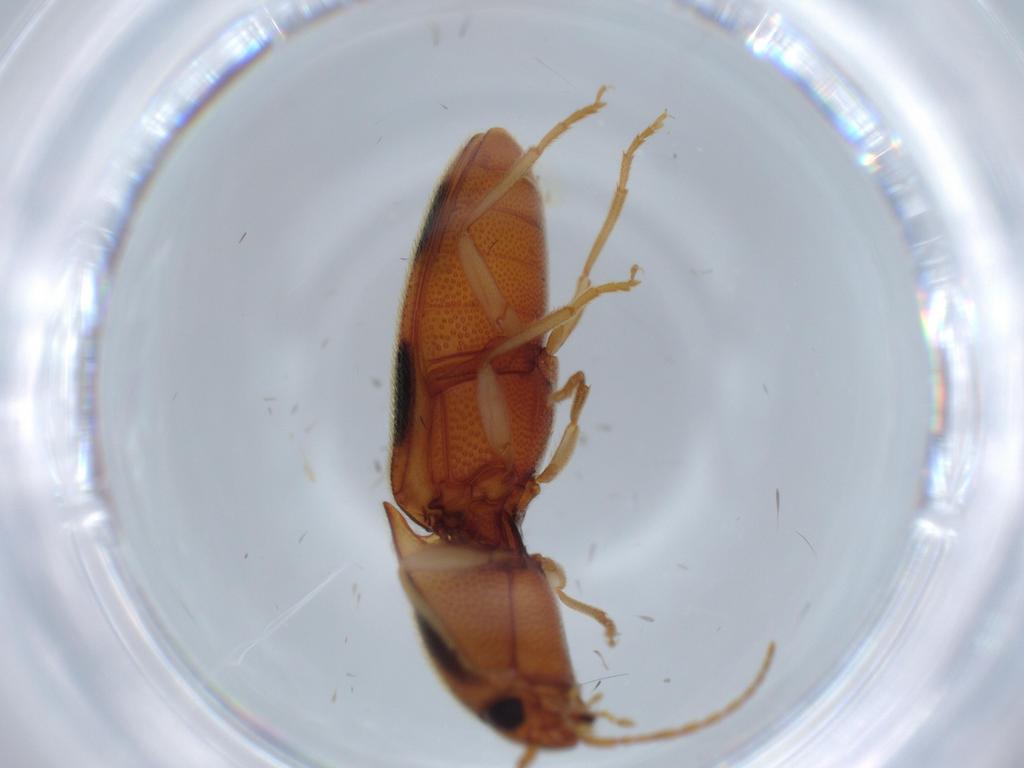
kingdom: Animalia
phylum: Arthropoda
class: Insecta
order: Coleoptera
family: Elateridae
